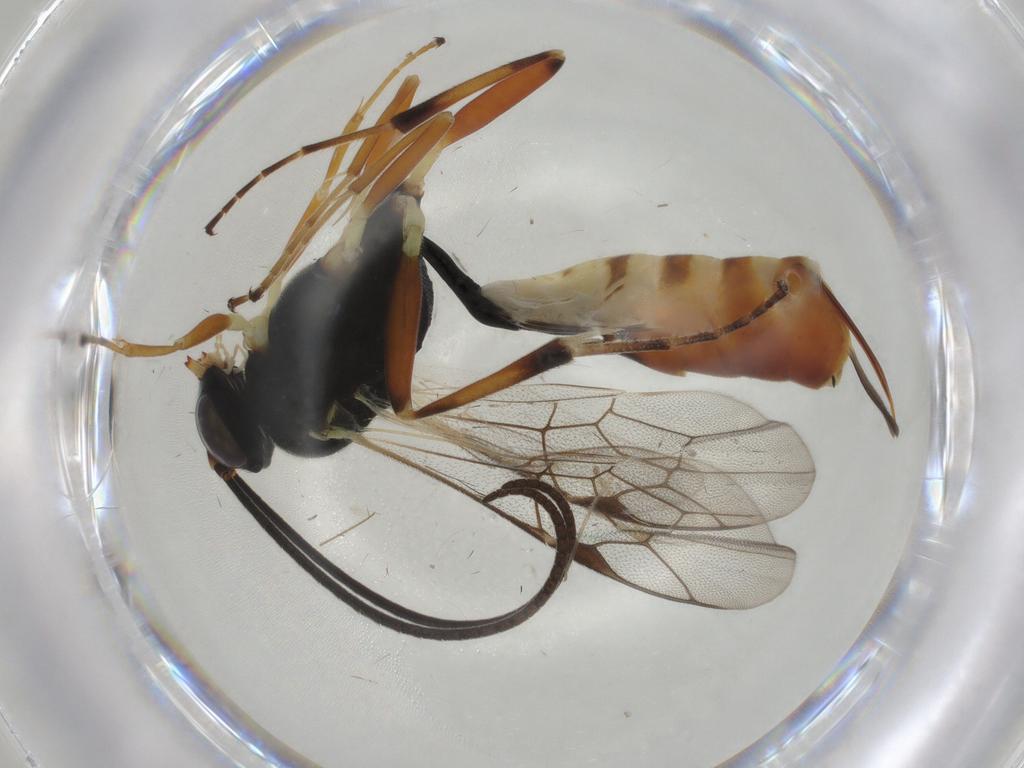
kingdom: Animalia
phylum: Arthropoda
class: Insecta
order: Hymenoptera
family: Ichneumonidae
